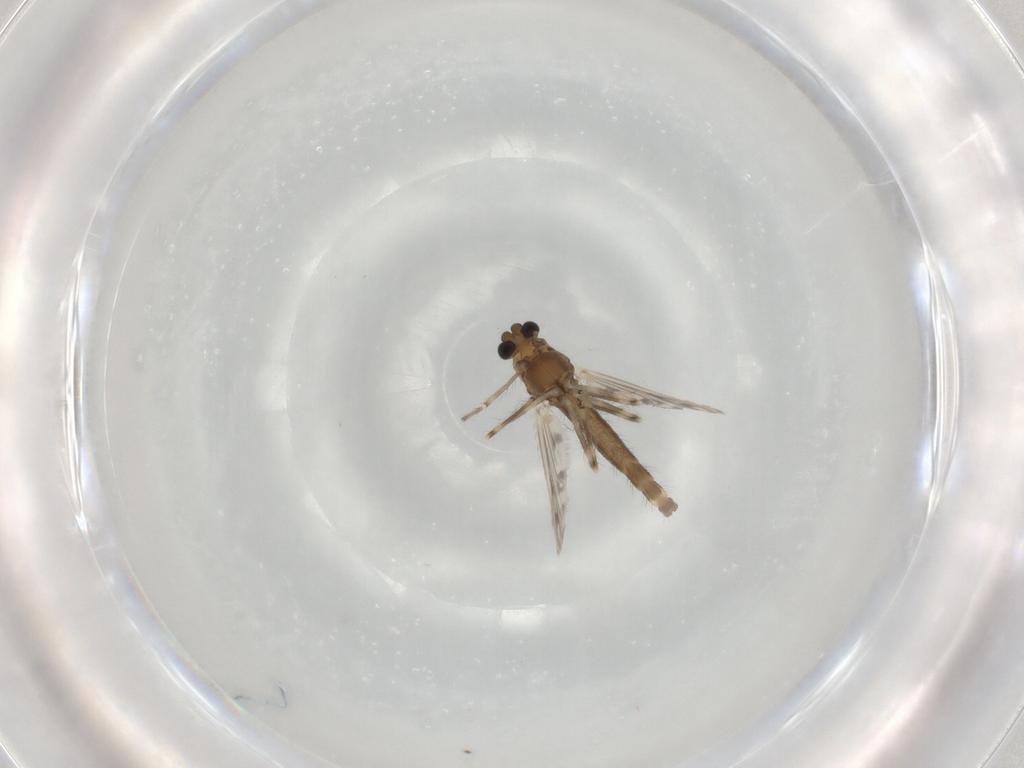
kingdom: Animalia
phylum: Arthropoda
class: Insecta
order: Diptera
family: Chironomidae
